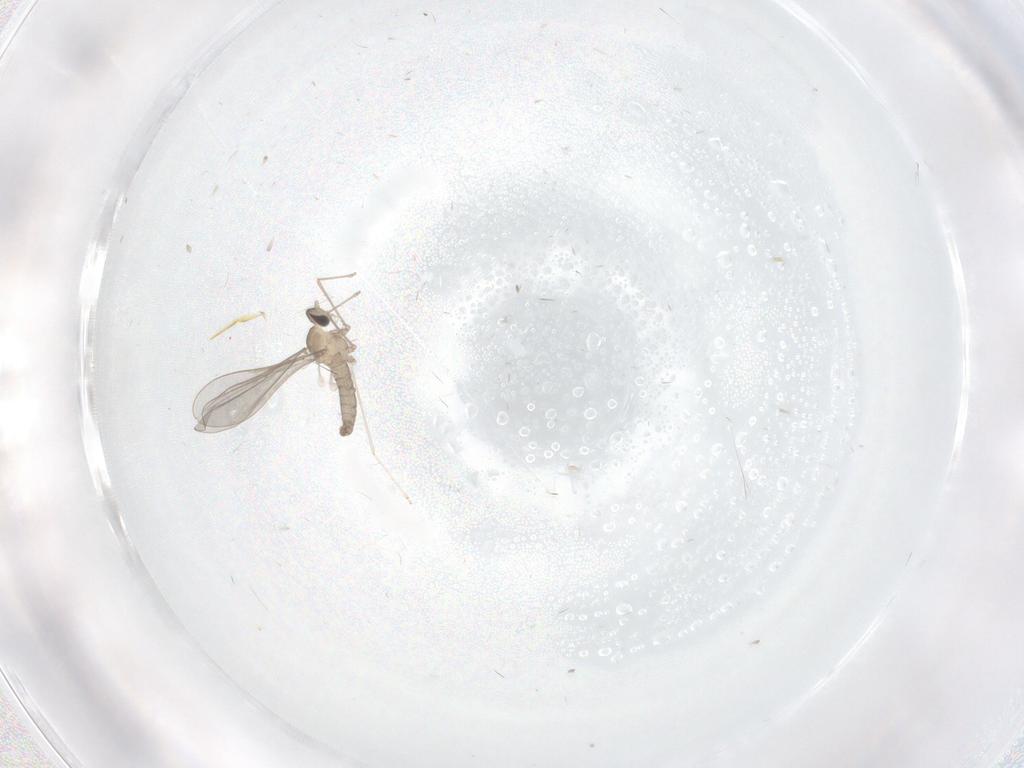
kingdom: Animalia
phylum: Arthropoda
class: Insecta
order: Diptera
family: Cecidomyiidae
